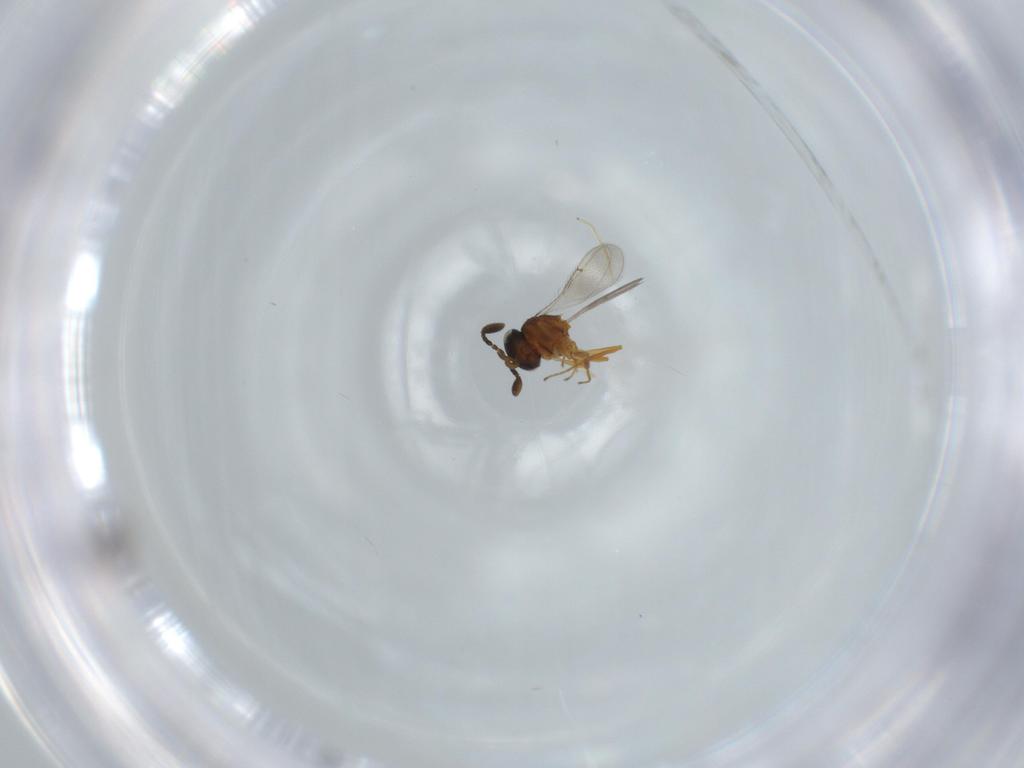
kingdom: Animalia
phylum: Arthropoda
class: Insecta
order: Hymenoptera
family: Scelionidae
